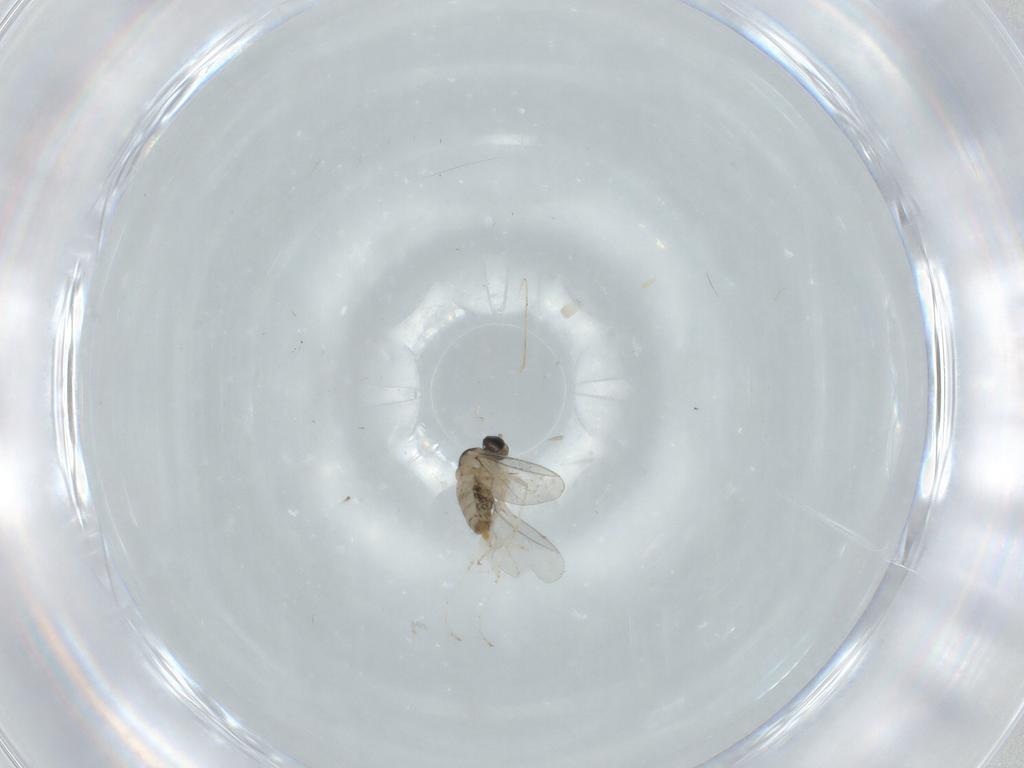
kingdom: Animalia
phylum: Arthropoda
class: Insecta
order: Diptera
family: Cecidomyiidae
